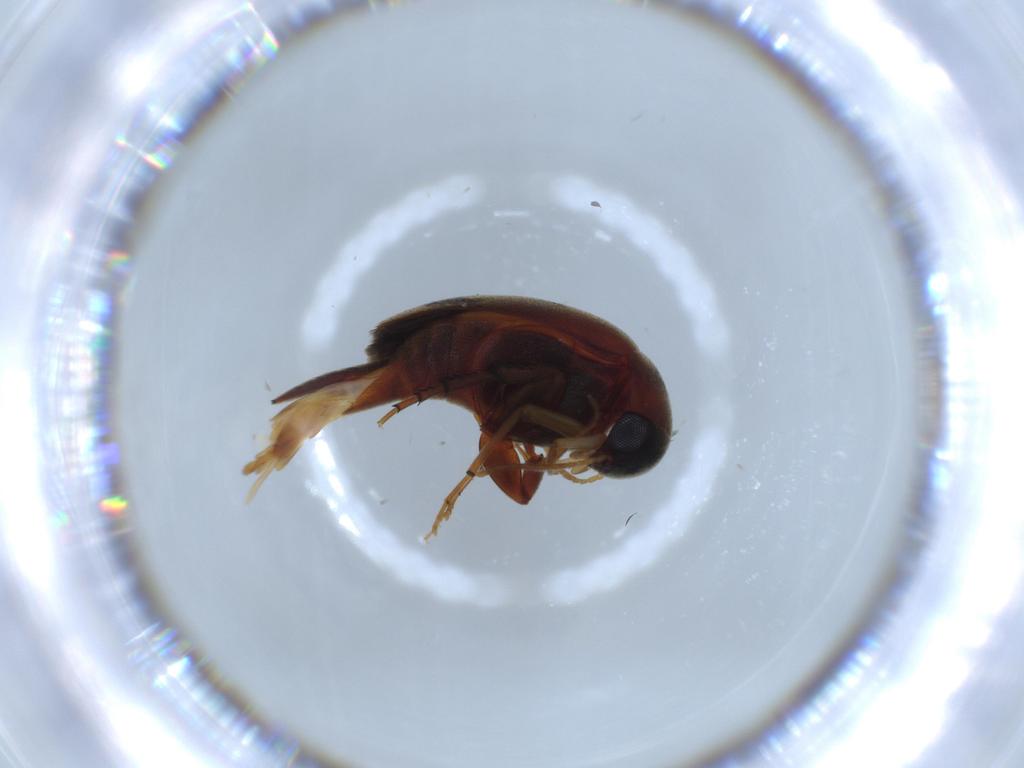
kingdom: Animalia
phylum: Arthropoda
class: Insecta
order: Coleoptera
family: Mordellidae
